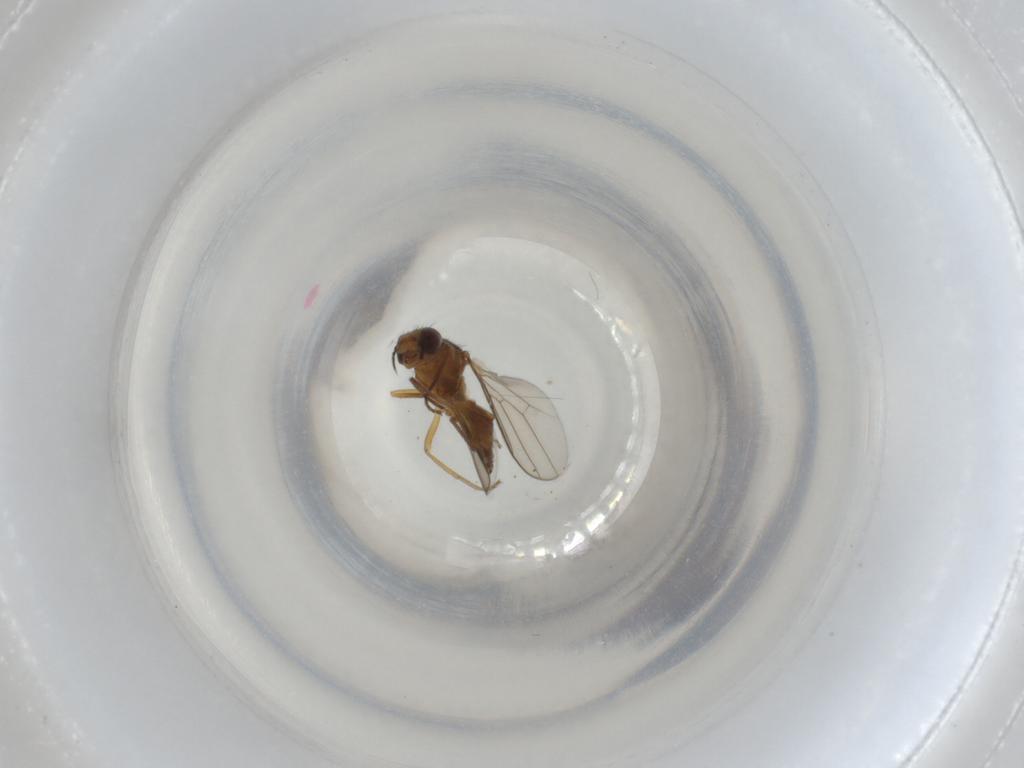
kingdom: Animalia
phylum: Arthropoda
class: Insecta
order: Diptera
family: Chloropidae
